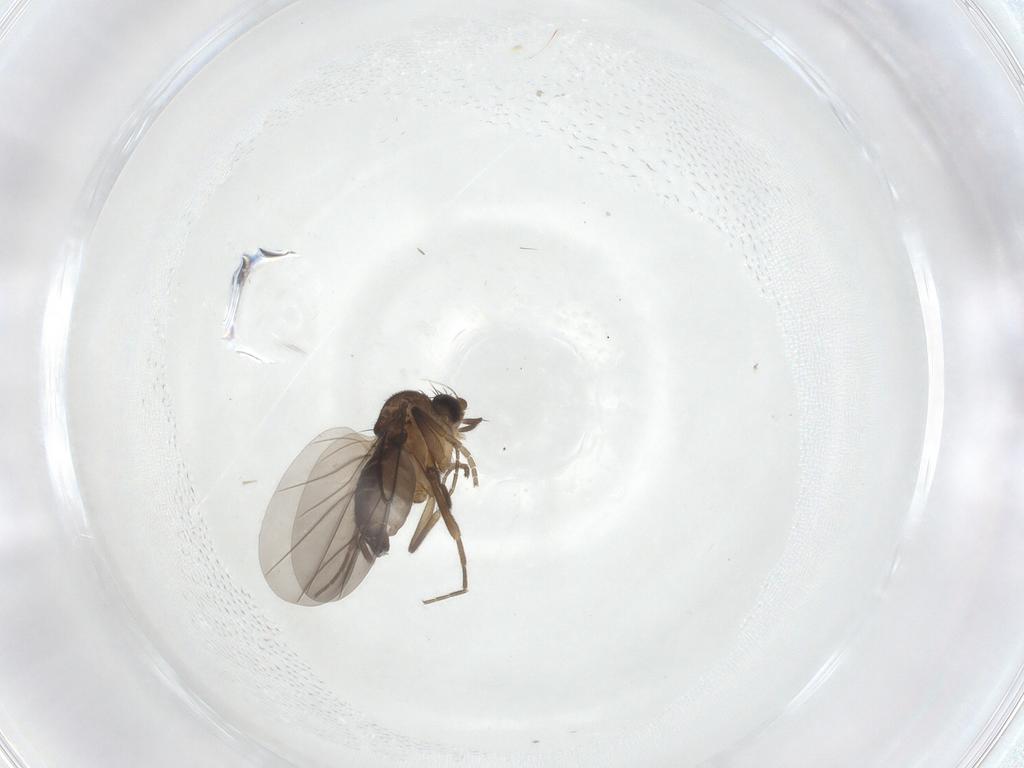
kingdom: Animalia
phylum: Arthropoda
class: Insecta
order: Diptera
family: Phoridae
